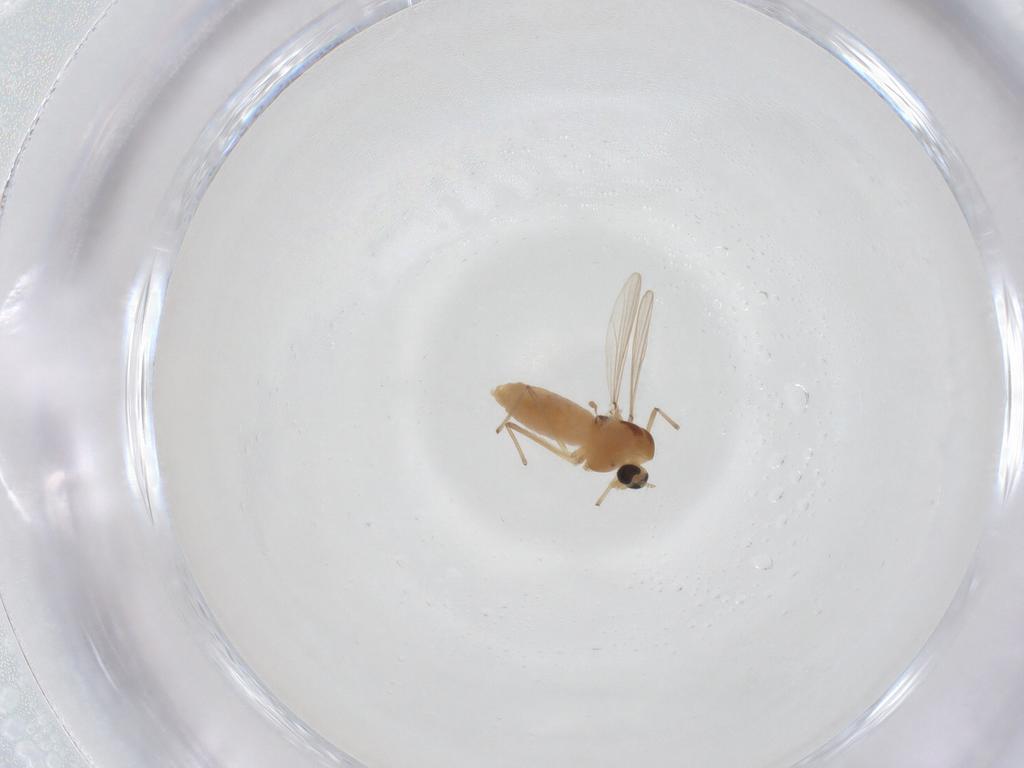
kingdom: Animalia
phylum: Arthropoda
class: Insecta
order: Diptera
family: Chironomidae
